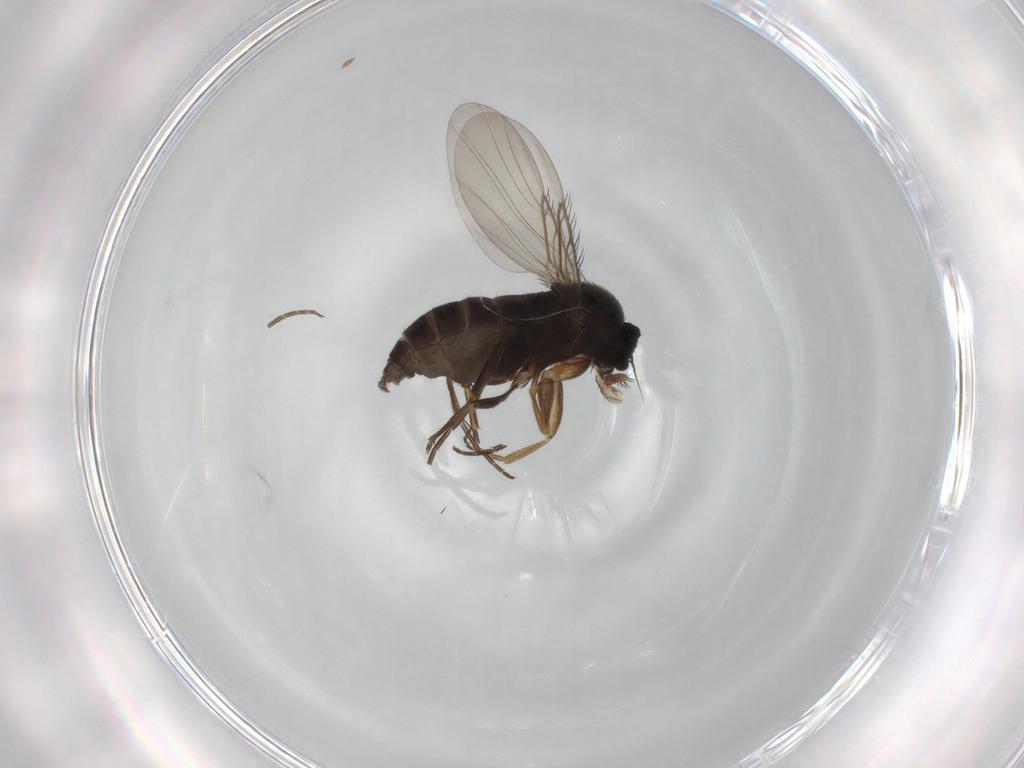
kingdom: Animalia
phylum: Arthropoda
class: Insecta
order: Diptera
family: Phoridae
